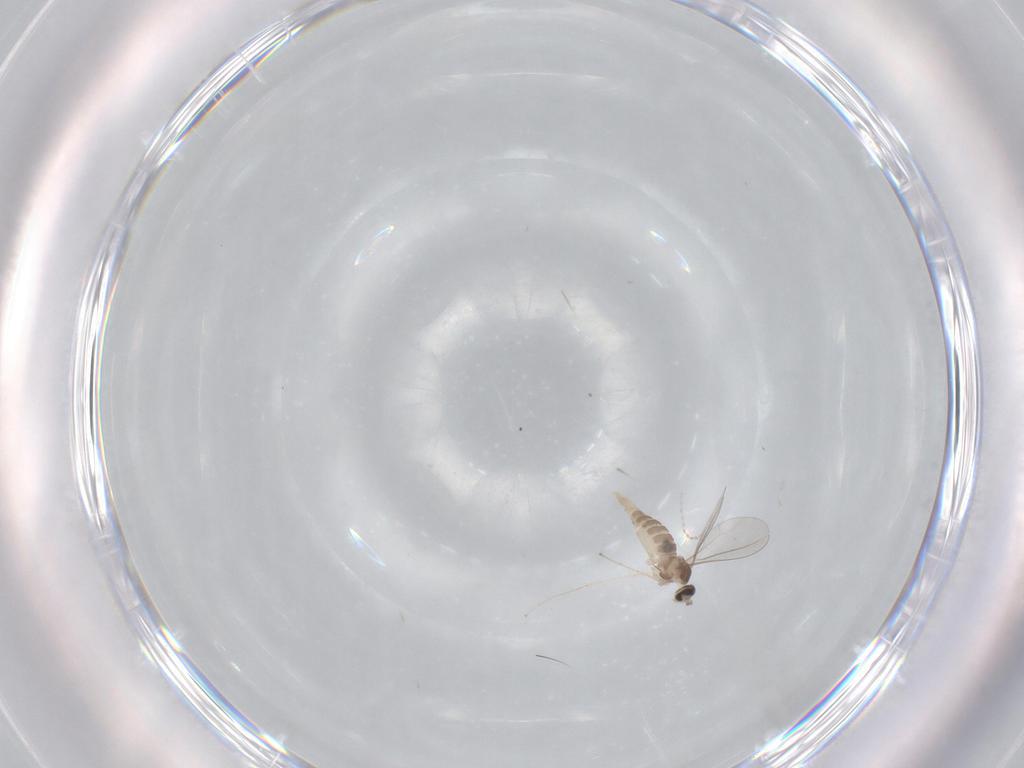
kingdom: Animalia
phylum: Arthropoda
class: Insecta
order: Diptera
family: Cecidomyiidae
